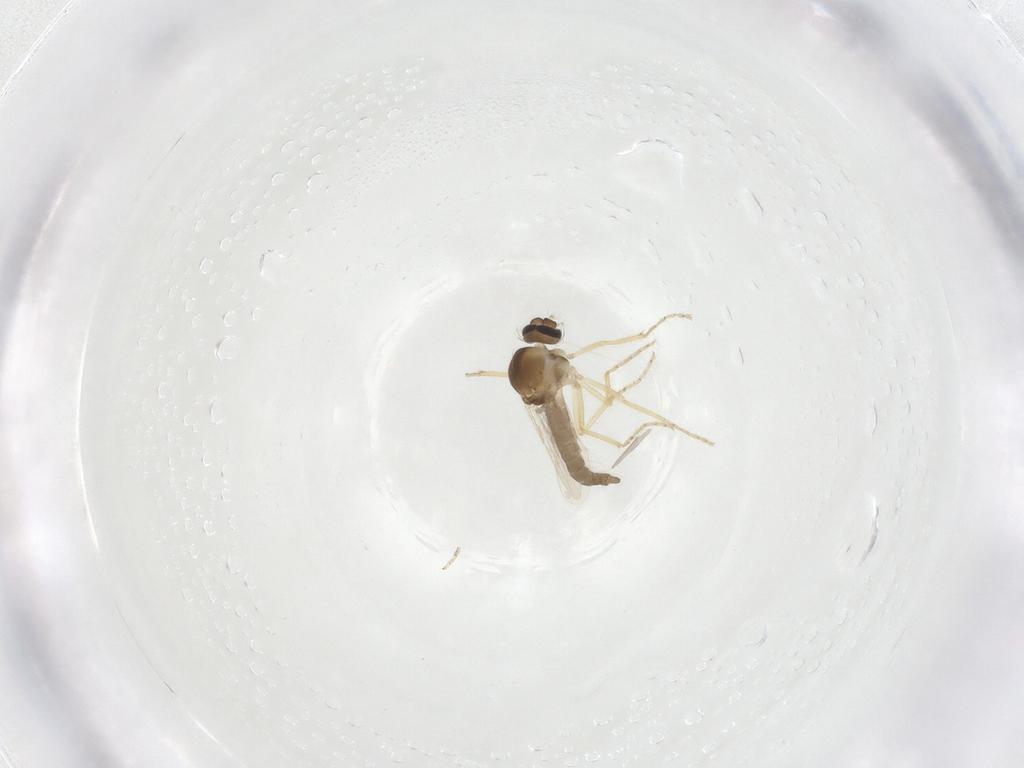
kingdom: Animalia
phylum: Arthropoda
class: Insecta
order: Diptera
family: Ceratopogonidae
